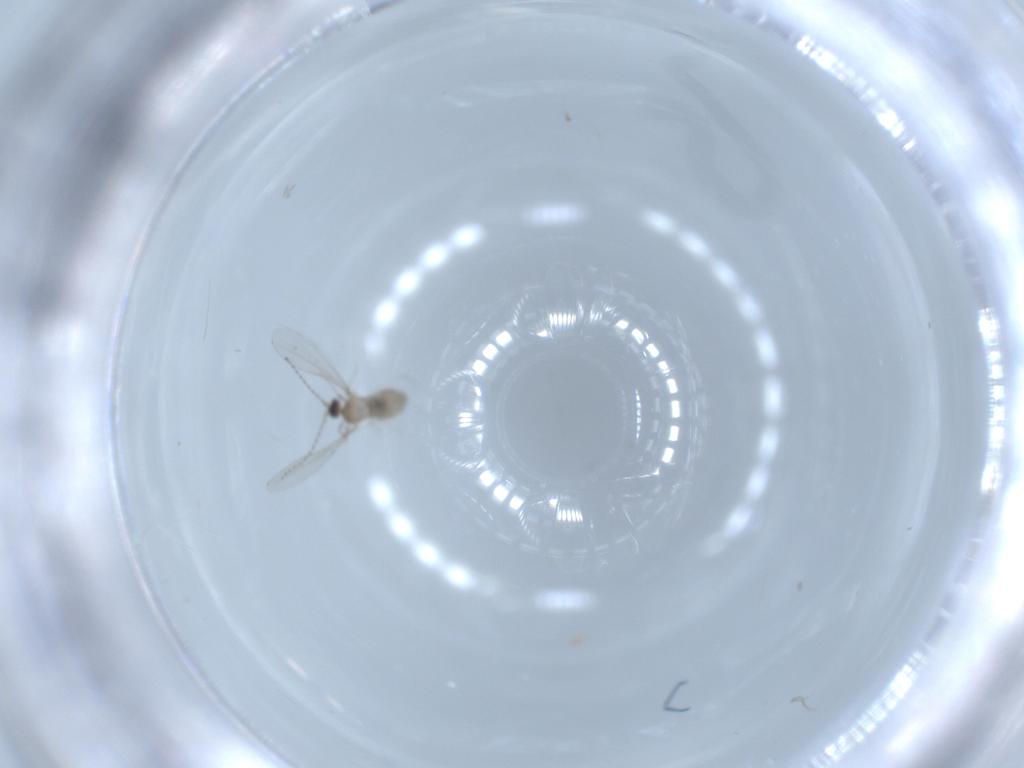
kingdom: Animalia
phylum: Arthropoda
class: Insecta
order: Diptera
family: Cecidomyiidae
